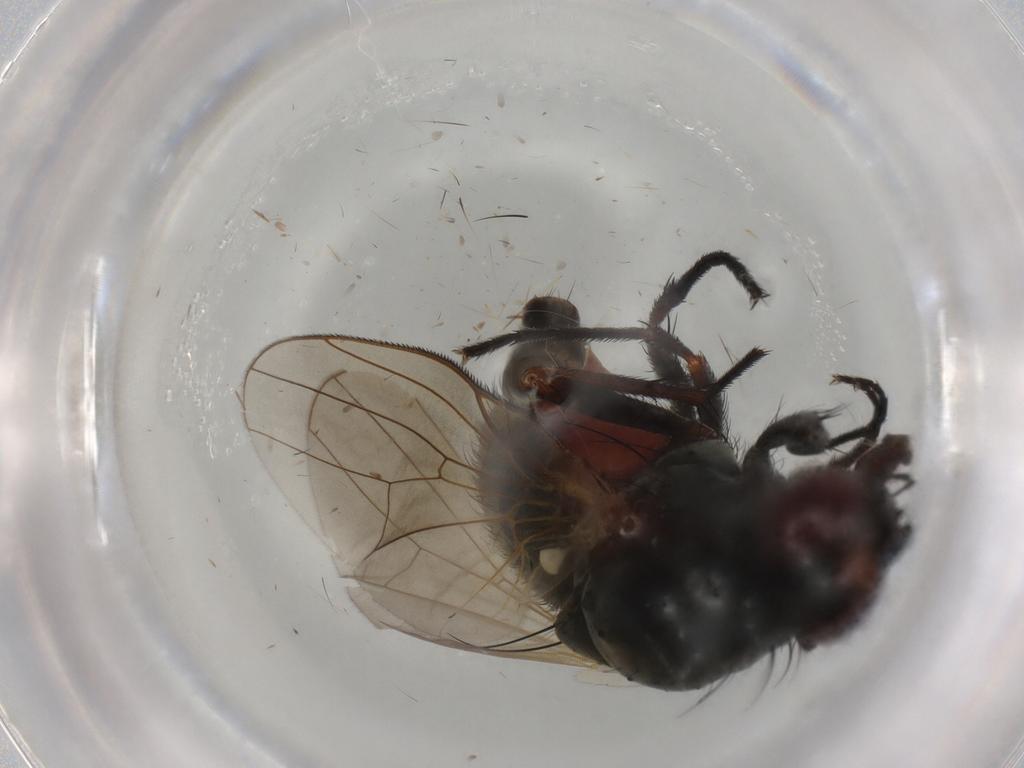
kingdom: Animalia
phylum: Arthropoda
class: Insecta
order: Diptera
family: Anthomyiidae
